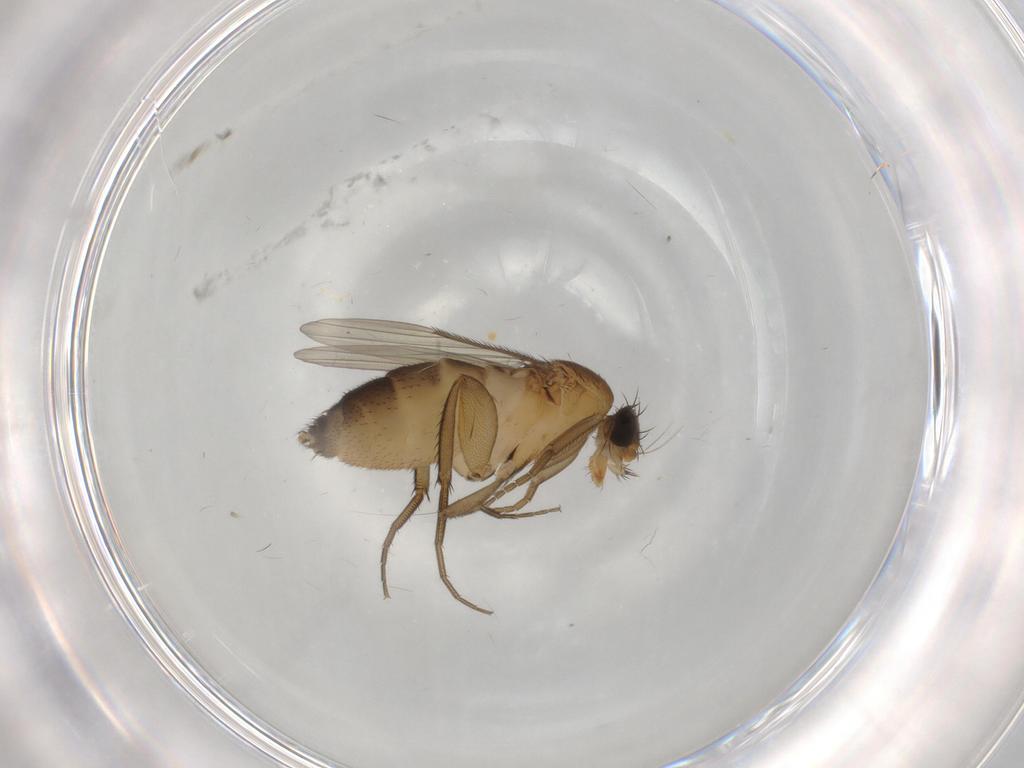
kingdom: Animalia
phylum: Arthropoda
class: Insecta
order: Diptera
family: Phoridae
